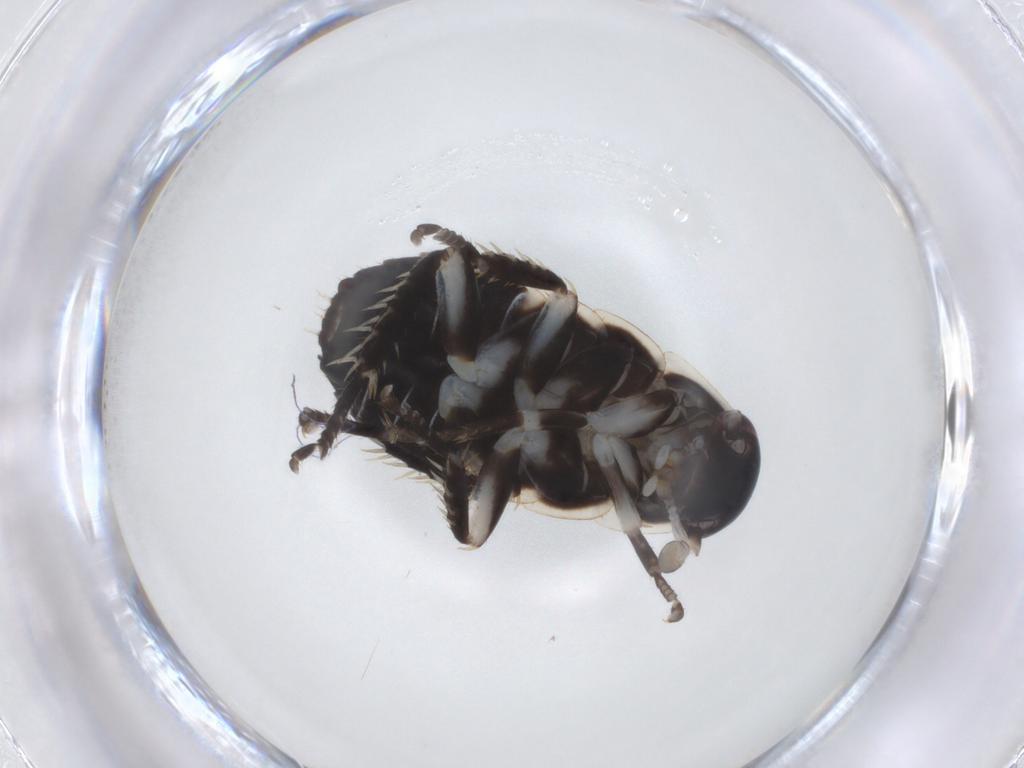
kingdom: Animalia
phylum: Arthropoda
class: Insecta
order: Blattodea
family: Ectobiidae
